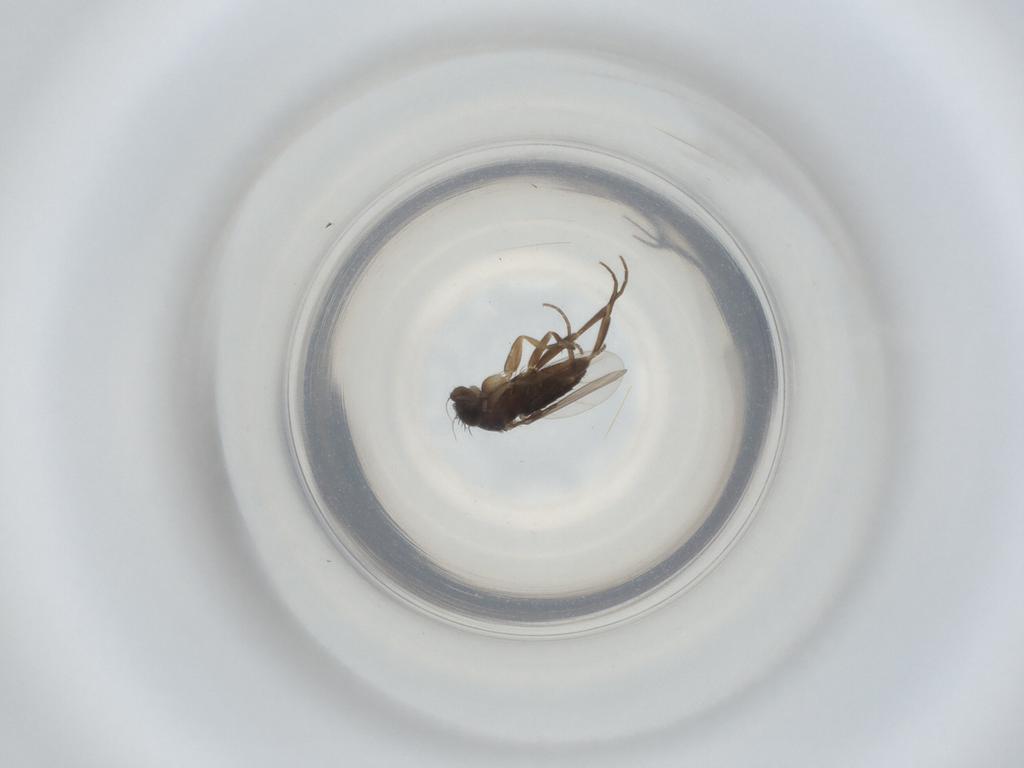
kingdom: Animalia
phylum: Arthropoda
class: Insecta
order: Diptera
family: Phoridae
